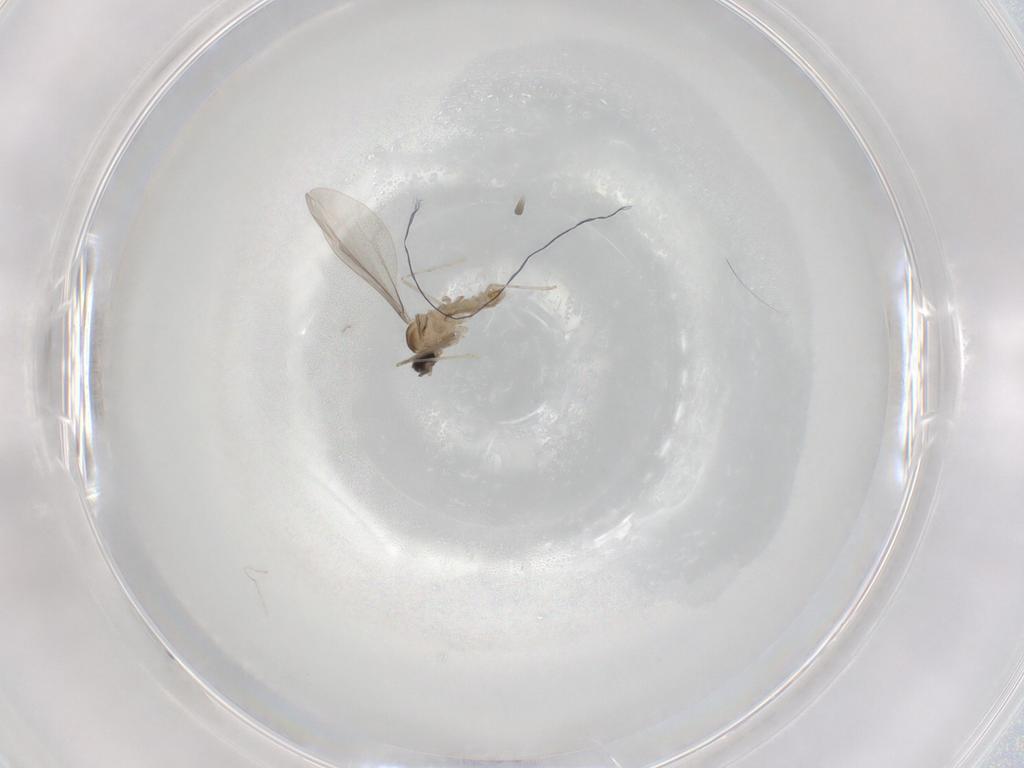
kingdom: Animalia
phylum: Arthropoda
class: Insecta
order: Diptera
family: Cecidomyiidae
